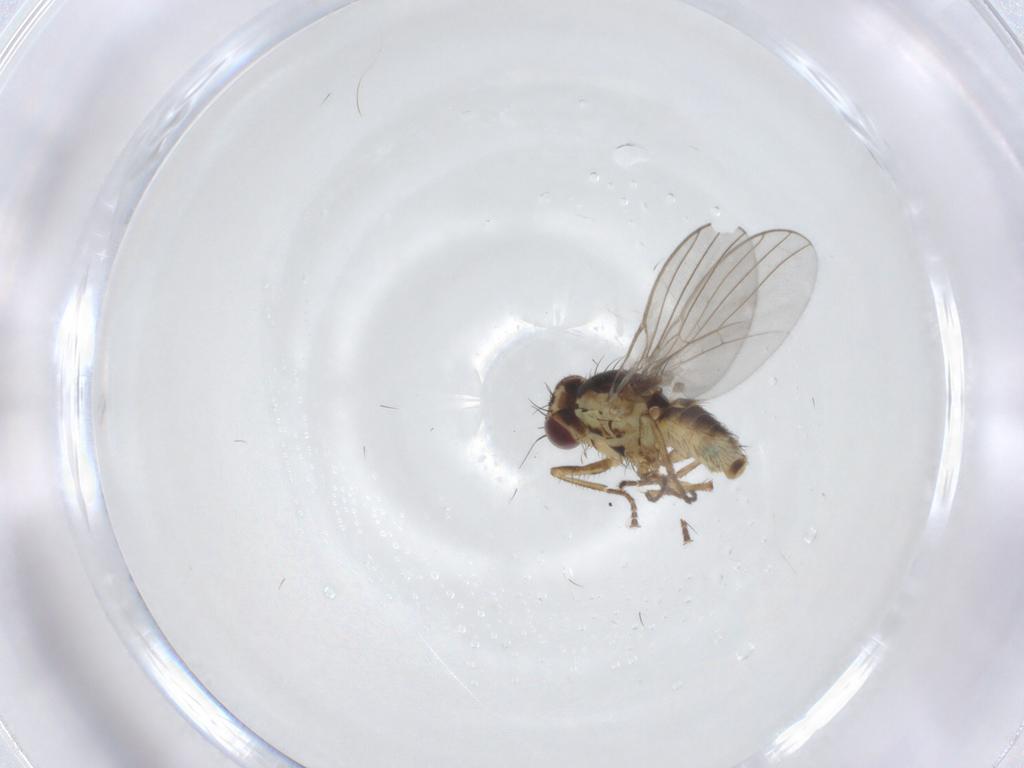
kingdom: Animalia
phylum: Arthropoda
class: Insecta
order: Diptera
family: Agromyzidae
